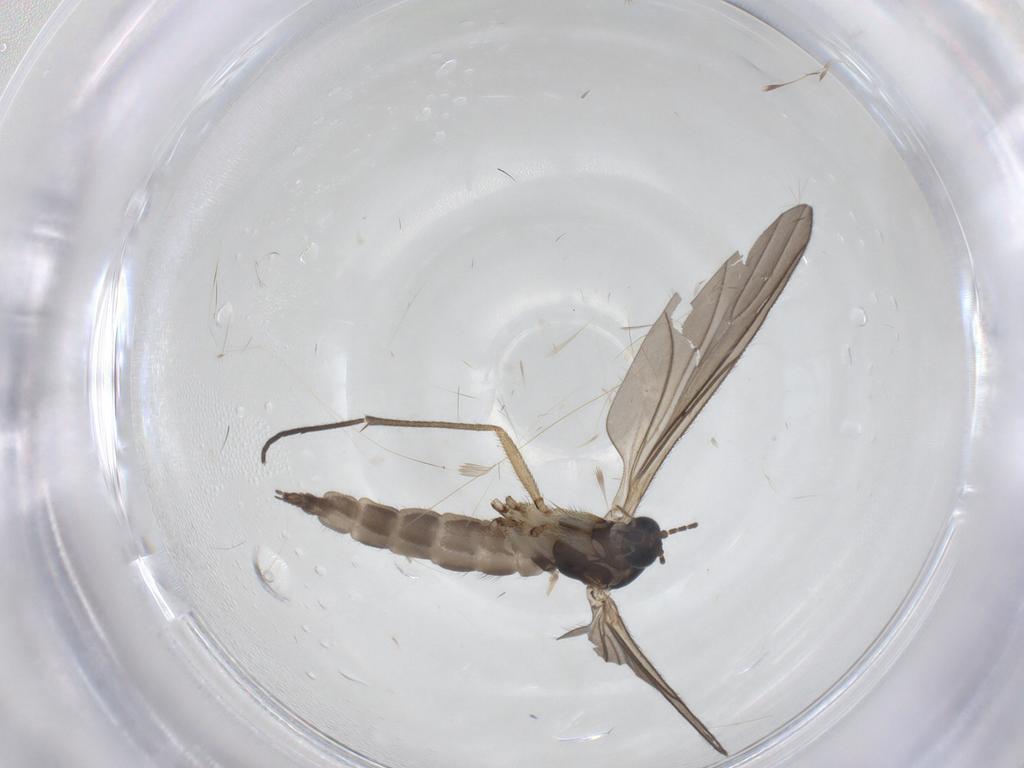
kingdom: Animalia
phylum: Arthropoda
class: Insecta
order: Diptera
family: Sciaridae
